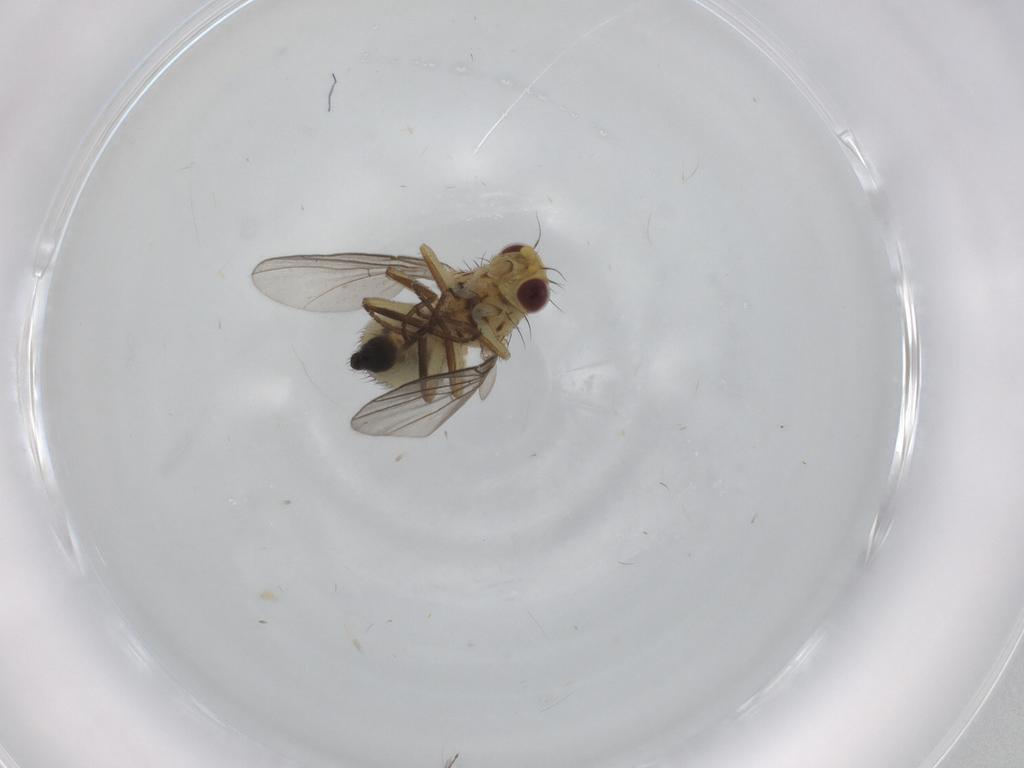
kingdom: Animalia
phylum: Arthropoda
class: Insecta
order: Diptera
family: Agromyzidae
